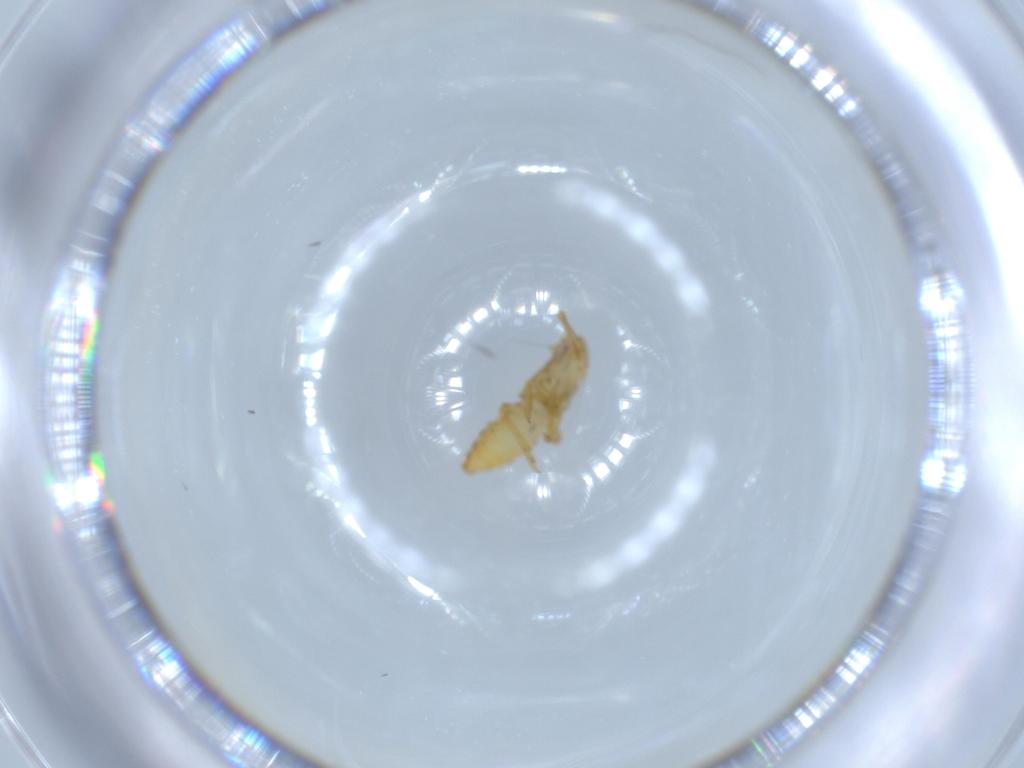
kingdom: Animalia
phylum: Arthropoda
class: Insecta
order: Hemiptera
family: Delphacidae
